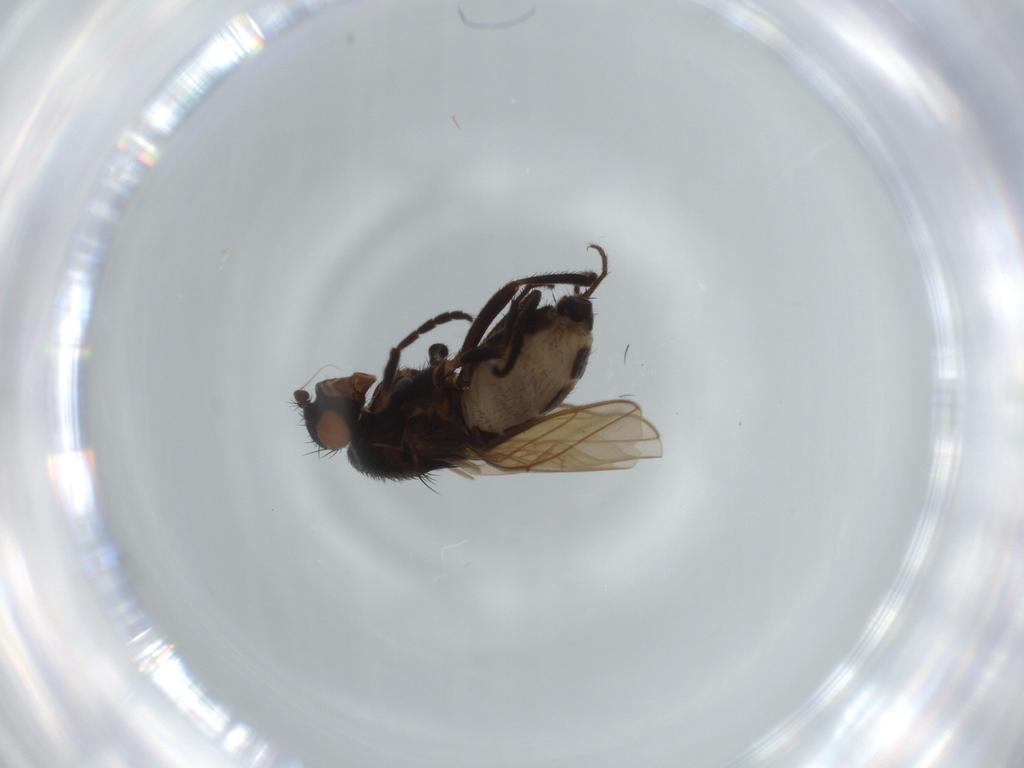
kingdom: Animalia
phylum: Arthropoda
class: Insecta
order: Diptera
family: Sphaeroceridae
